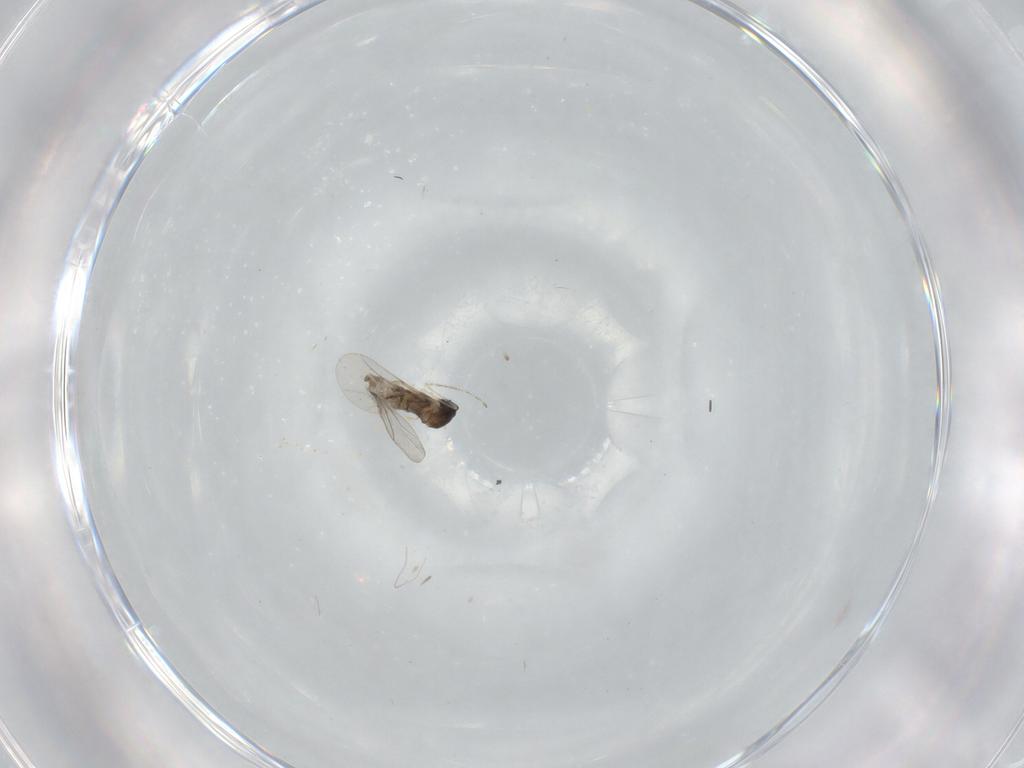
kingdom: Animalia
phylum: Arthropoda
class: Insecta
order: Diptera
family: Cecidomyiidae
